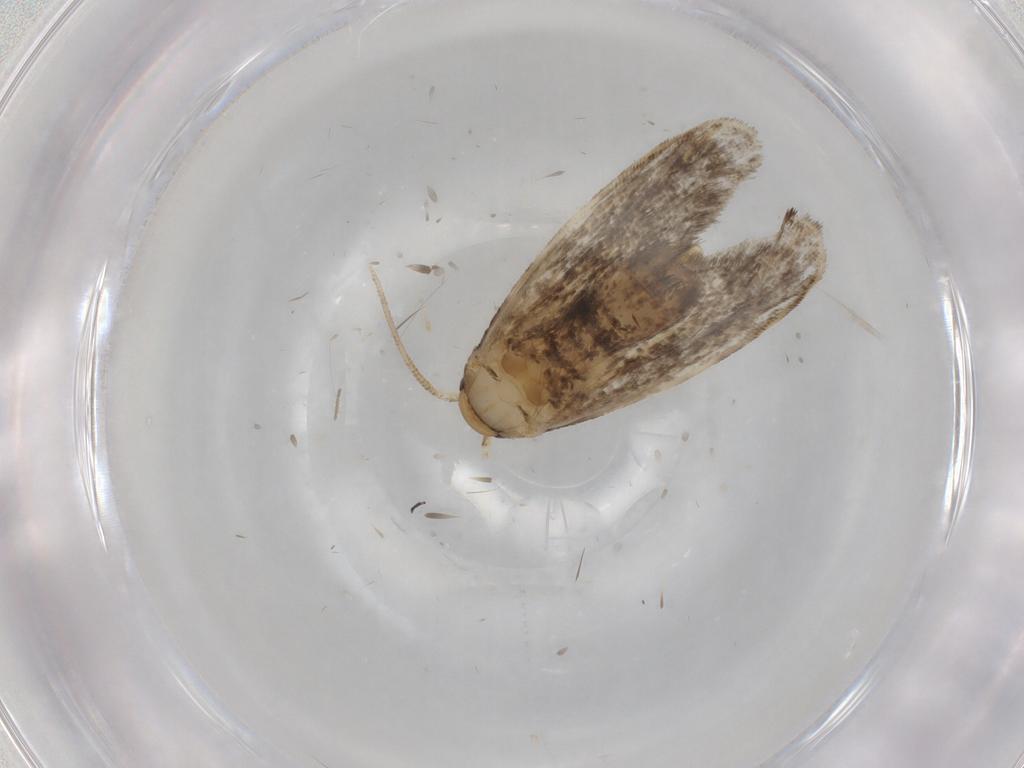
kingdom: Animalia
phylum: Arthropoda
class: Insecta
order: Lepidoptera
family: Dryadaulidae
